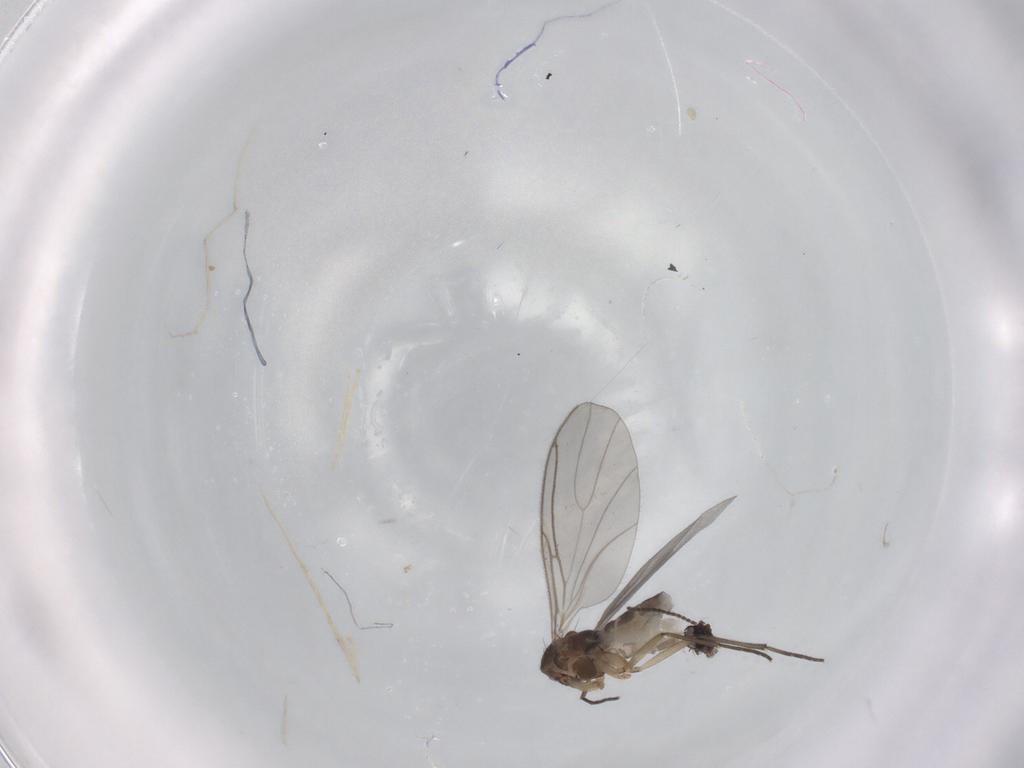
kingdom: Animalia
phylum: Arthropoda
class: Insecta
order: Diptera
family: Sciaridae
